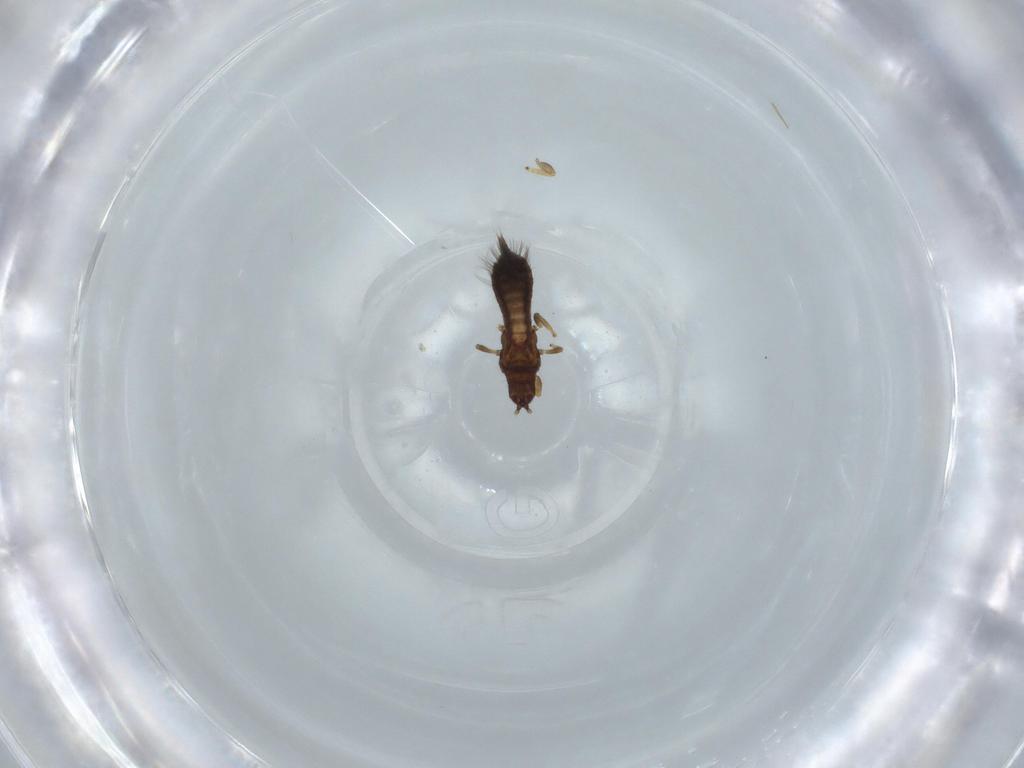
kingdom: Animalia
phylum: Arthropoda
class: Insecta
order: Thysanoptera
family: Phlaeothripidae
